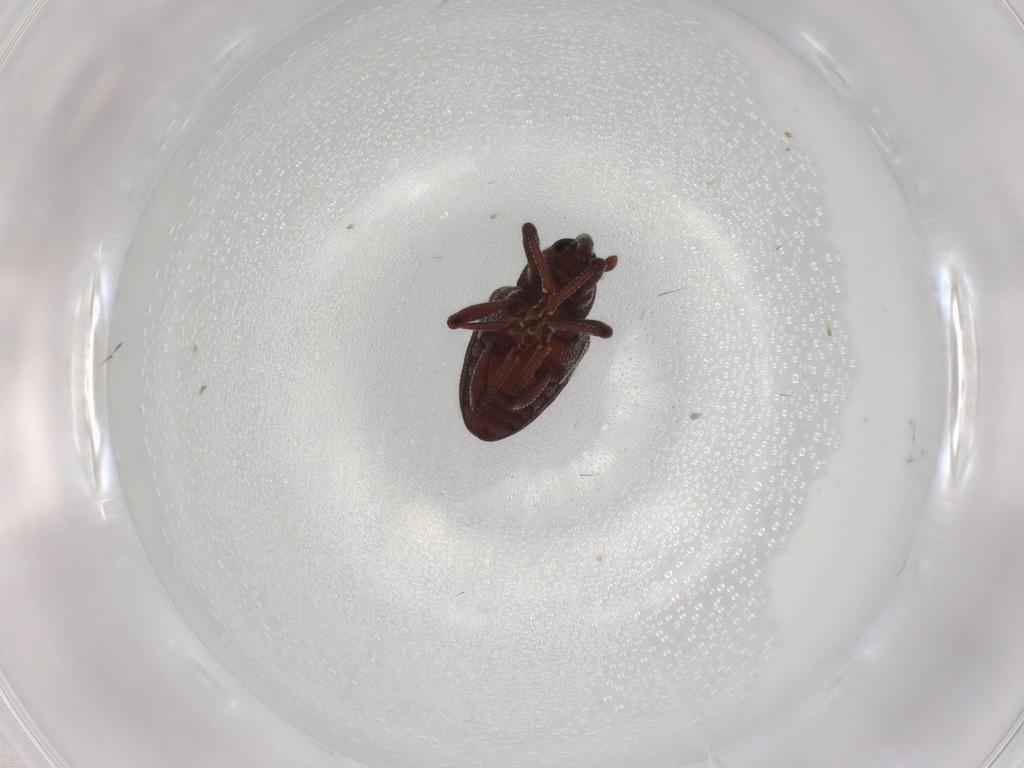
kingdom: Animalia
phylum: Arthropoda
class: Insecta
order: Coleoptera
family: Curculionidae
